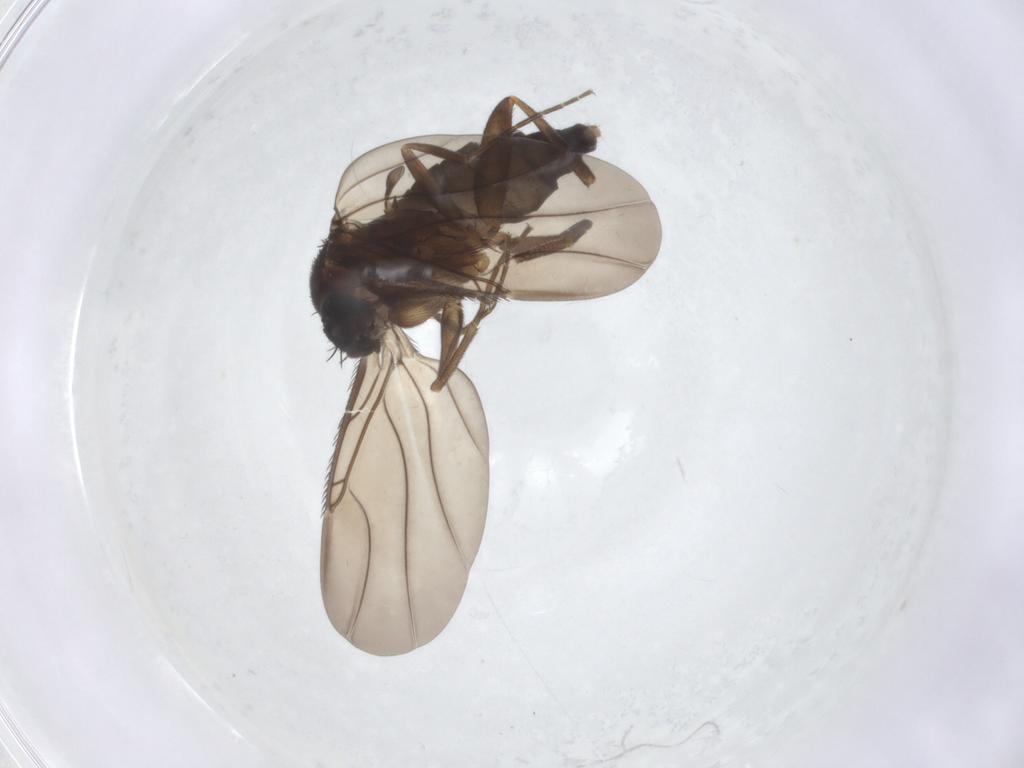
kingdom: Animalia
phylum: Arthropoda
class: Insecta
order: Diptera
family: Phoridae
